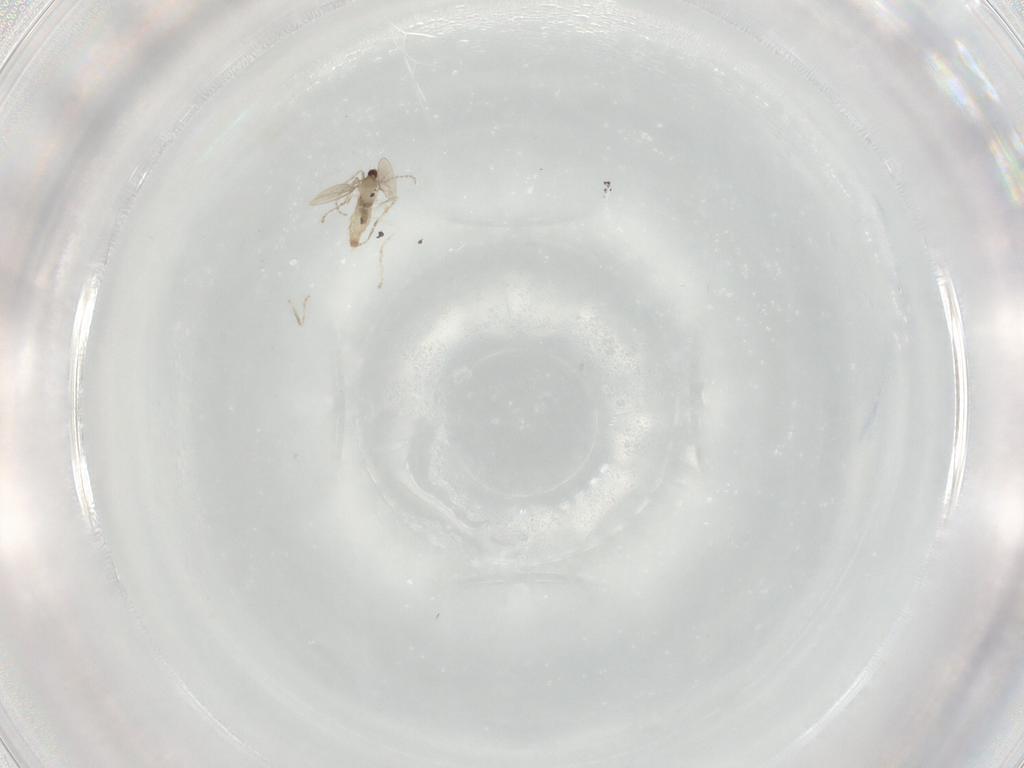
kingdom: Animalia
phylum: Arthropoda
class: Insecta
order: Diptera
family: Cecidomyiidae
